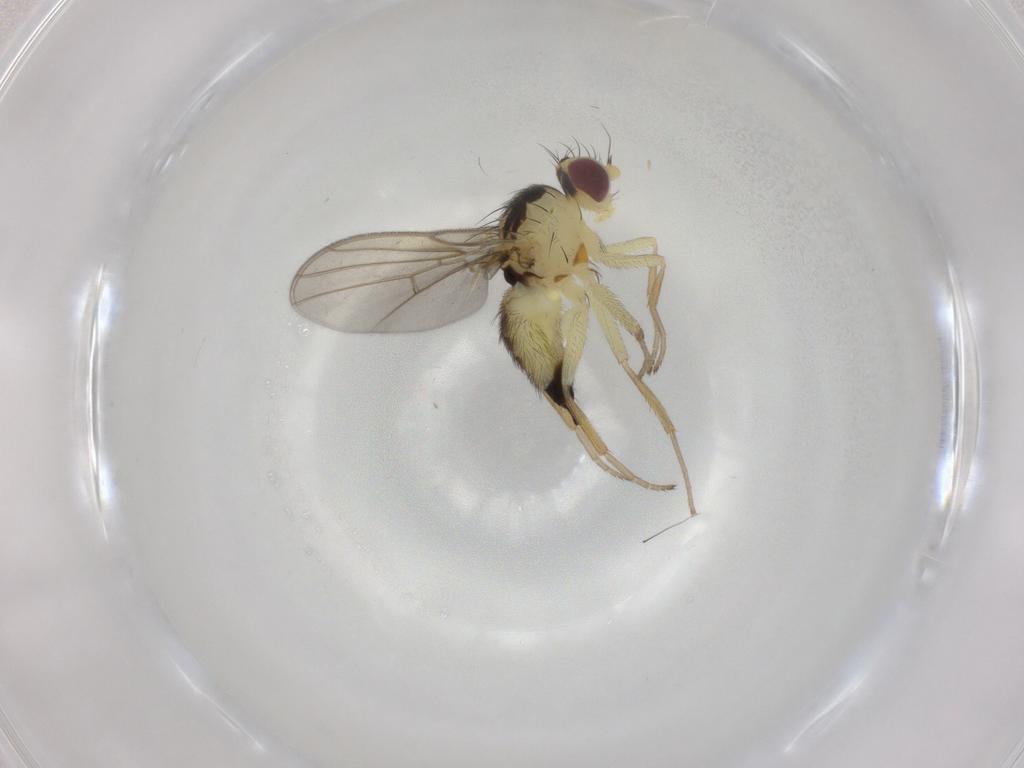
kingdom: Animalia
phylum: Arthropoda
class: Insecta
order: Diptera
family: Agromyzidae
